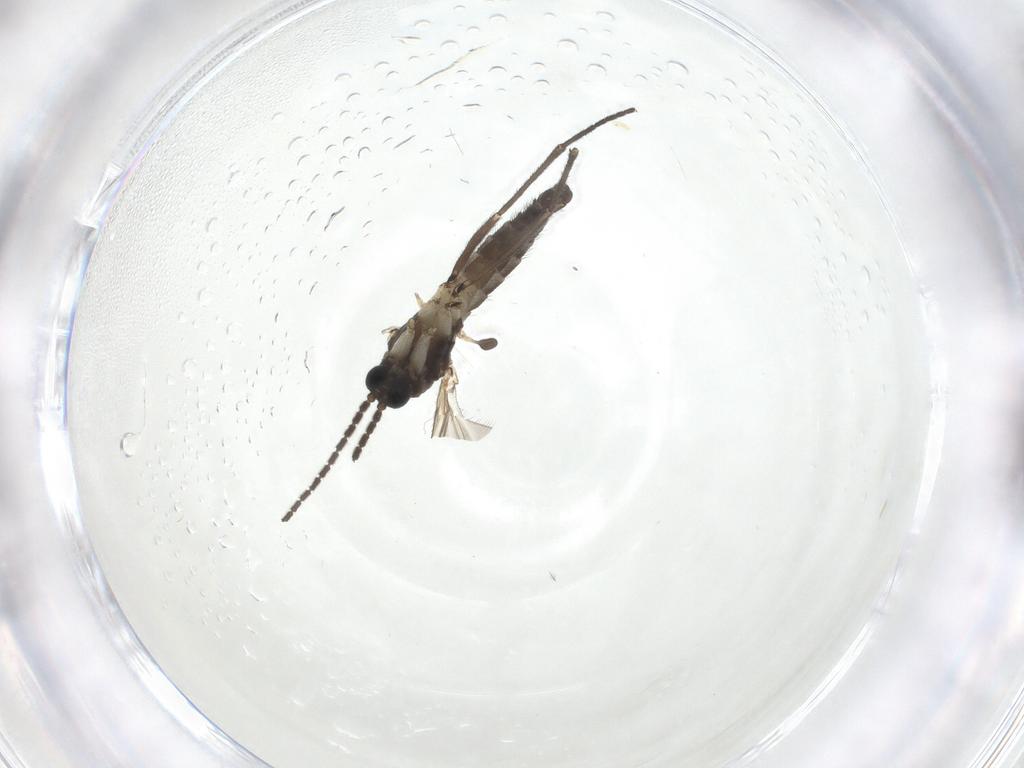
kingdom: Animalia
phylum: Arthropoda
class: Insecta
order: Diptera
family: Sciaridae
